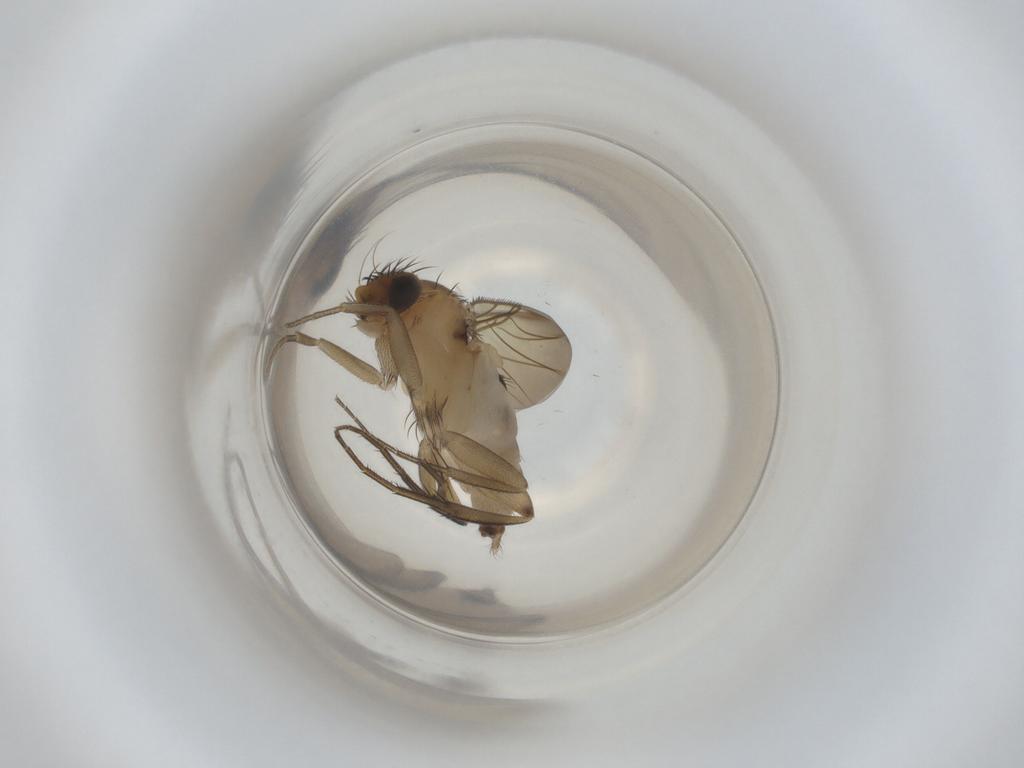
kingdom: Animalia
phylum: Arthropoda
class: Insecta
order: Diptera
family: Phoridae
